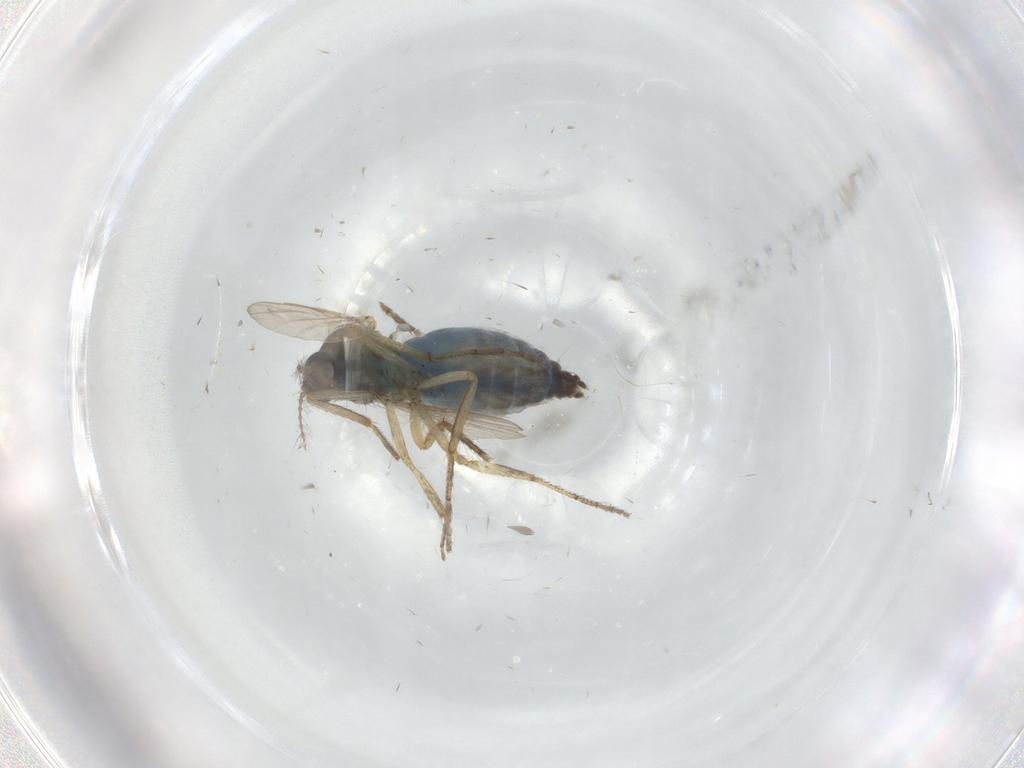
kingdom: Animalia
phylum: Arthropoda
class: Insecta
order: Diptera
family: Ceratopogonidae
